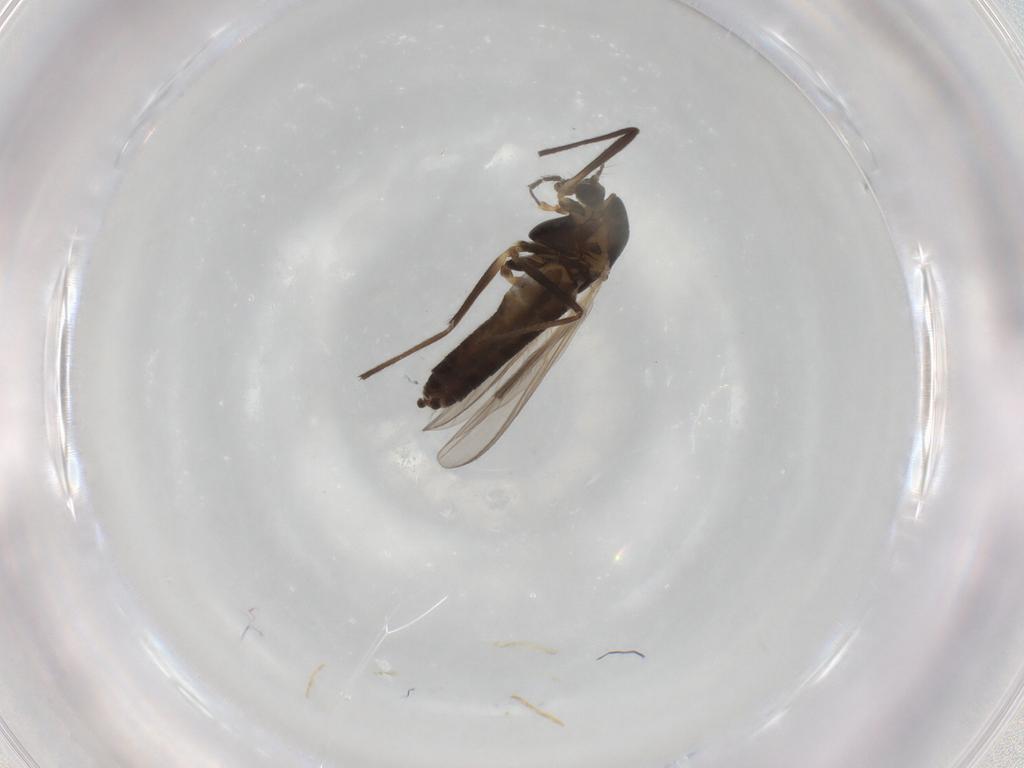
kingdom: Animalia
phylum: Arthropoda
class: Insecta
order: Diptera
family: Chironomidae
